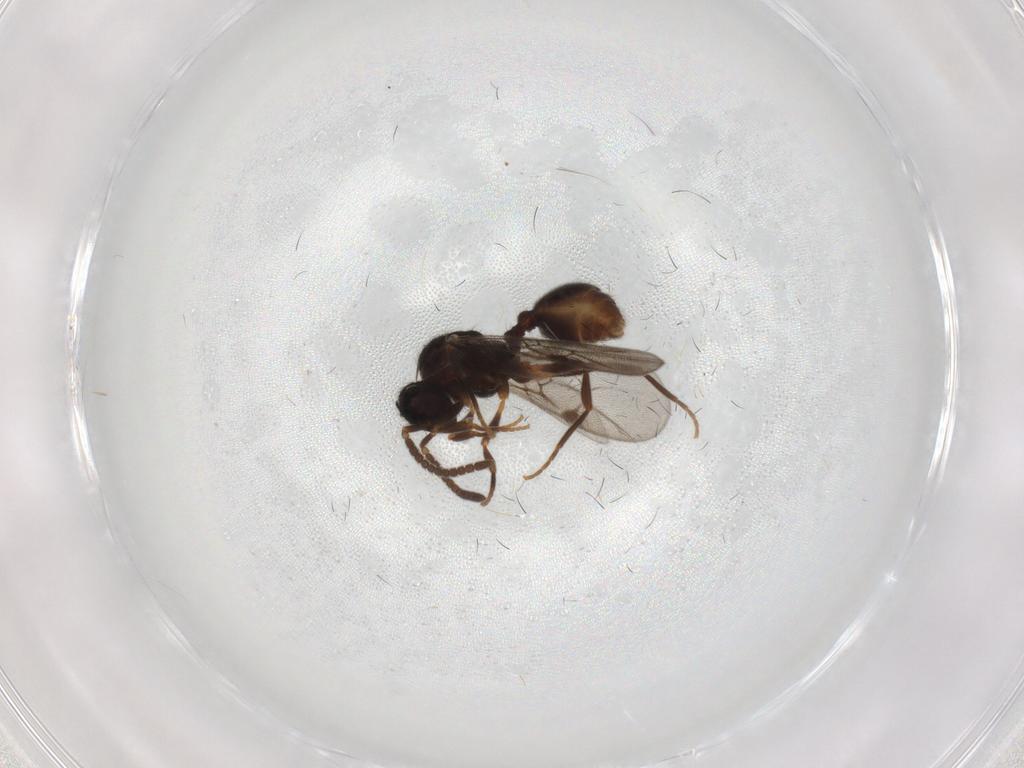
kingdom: Animalia
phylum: Arthropoda
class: Insecta
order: Hymenoptera
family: Formicidae
